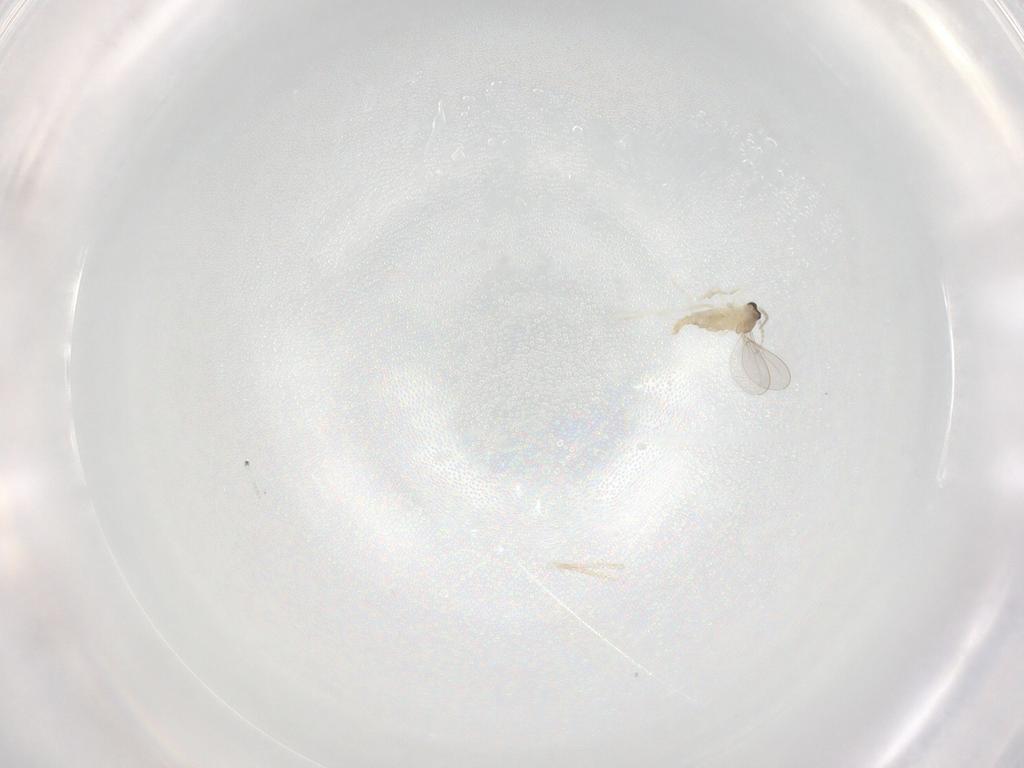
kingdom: Animalia
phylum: Arthropoda
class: Insecta
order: Diptera
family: Cecidomyiidae
